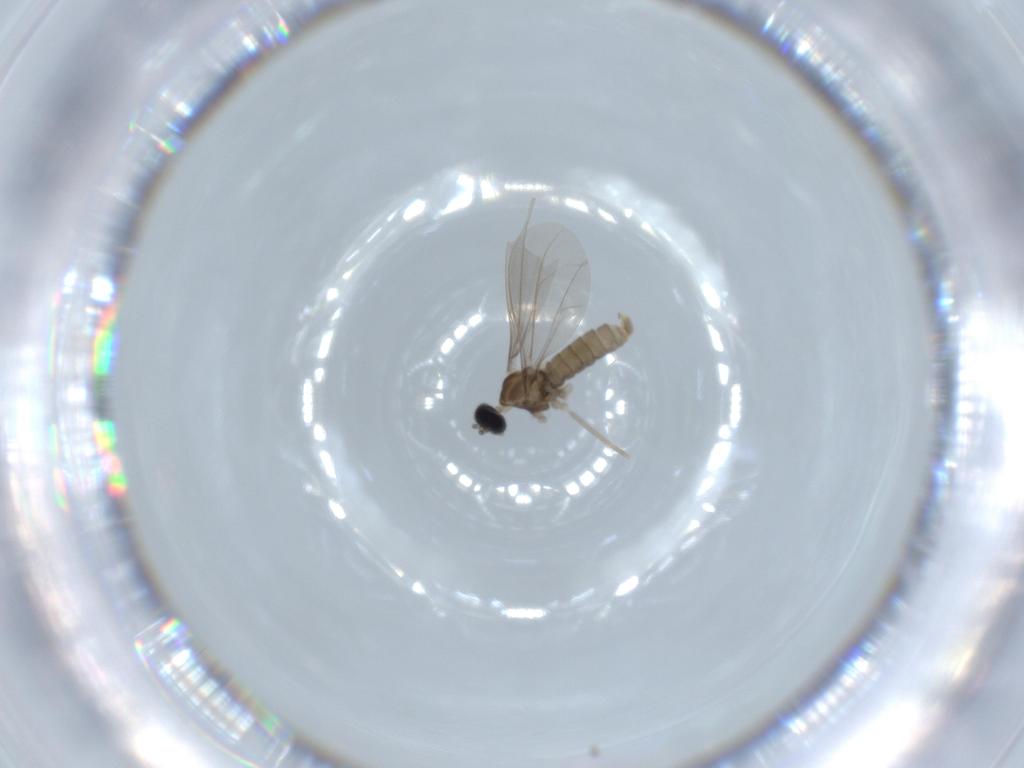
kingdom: Animalia
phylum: Arthropoda
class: Insecta
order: Diptera
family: Cecidomyiidae
